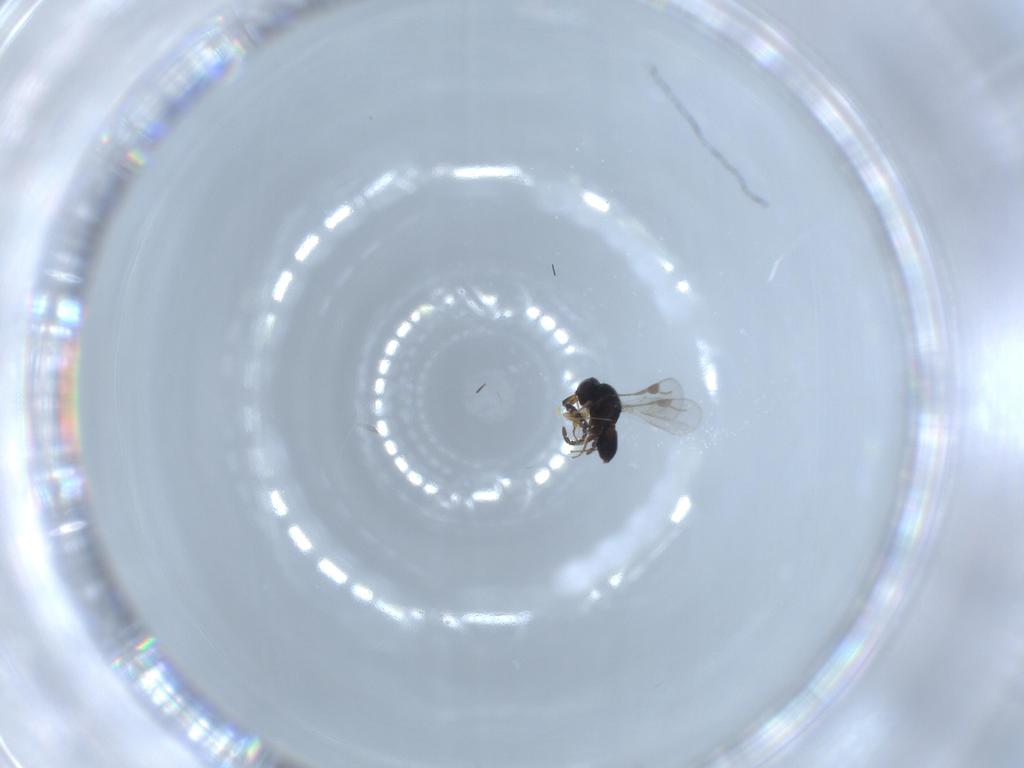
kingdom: Animalia
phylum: Arthropoda
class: Insecta
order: Hymenoptera
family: Megaspilidae
